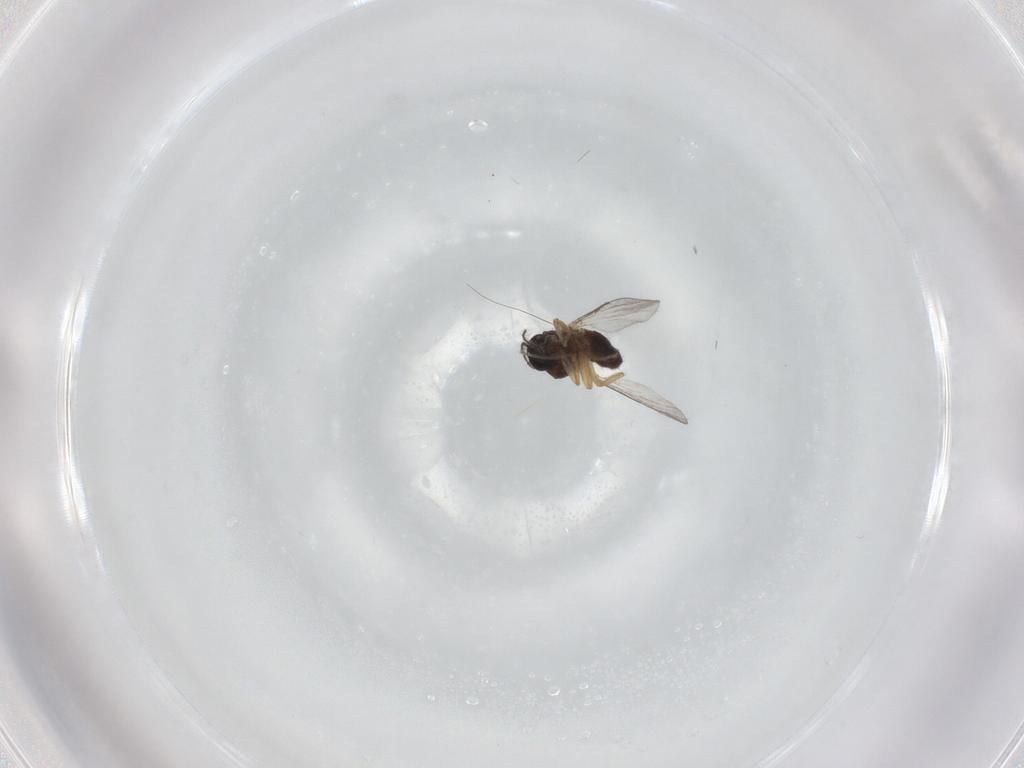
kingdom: Animalia
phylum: Arthropoda
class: Insecta
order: Diptera
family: Ceratopogonidae
